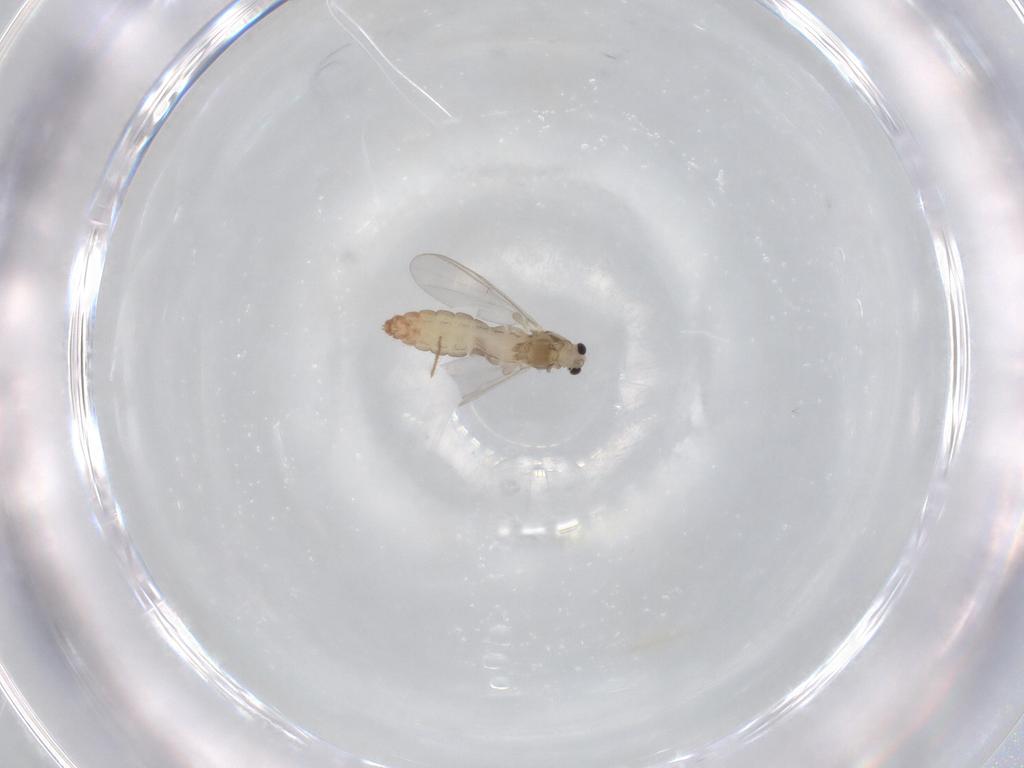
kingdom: Animalia
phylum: Arthropoda
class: Insecta
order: Diptera
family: Chironomidae
